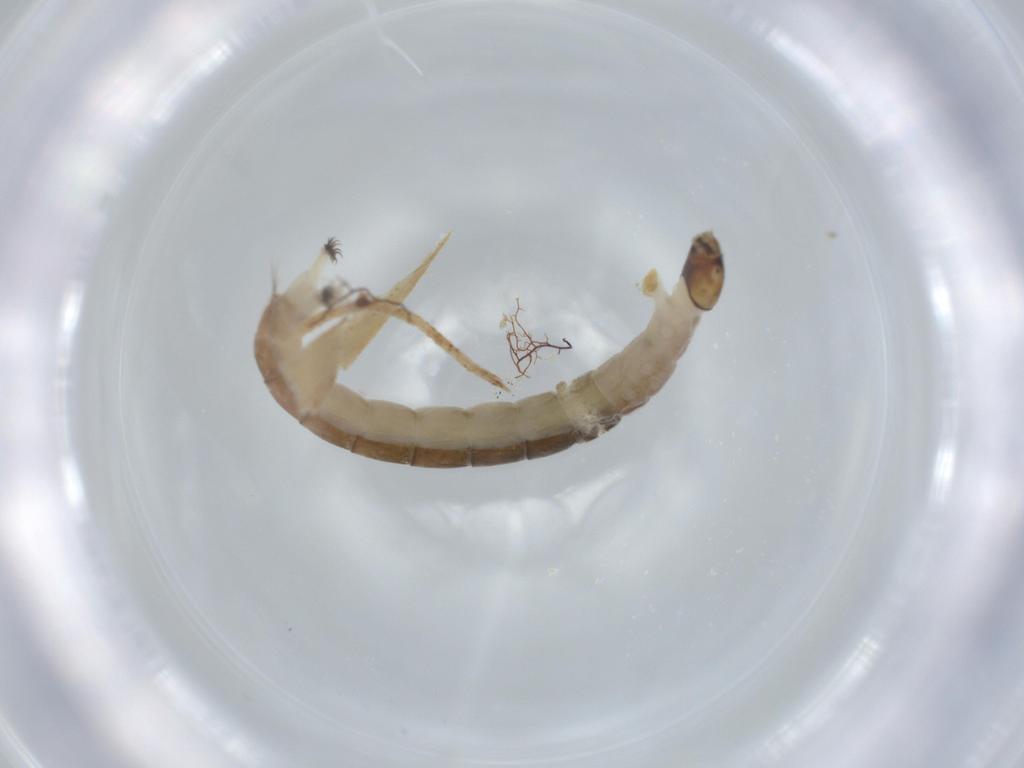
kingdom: Animalia
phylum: Arthropoda
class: Insecta
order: Diptera
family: Chironomidae
